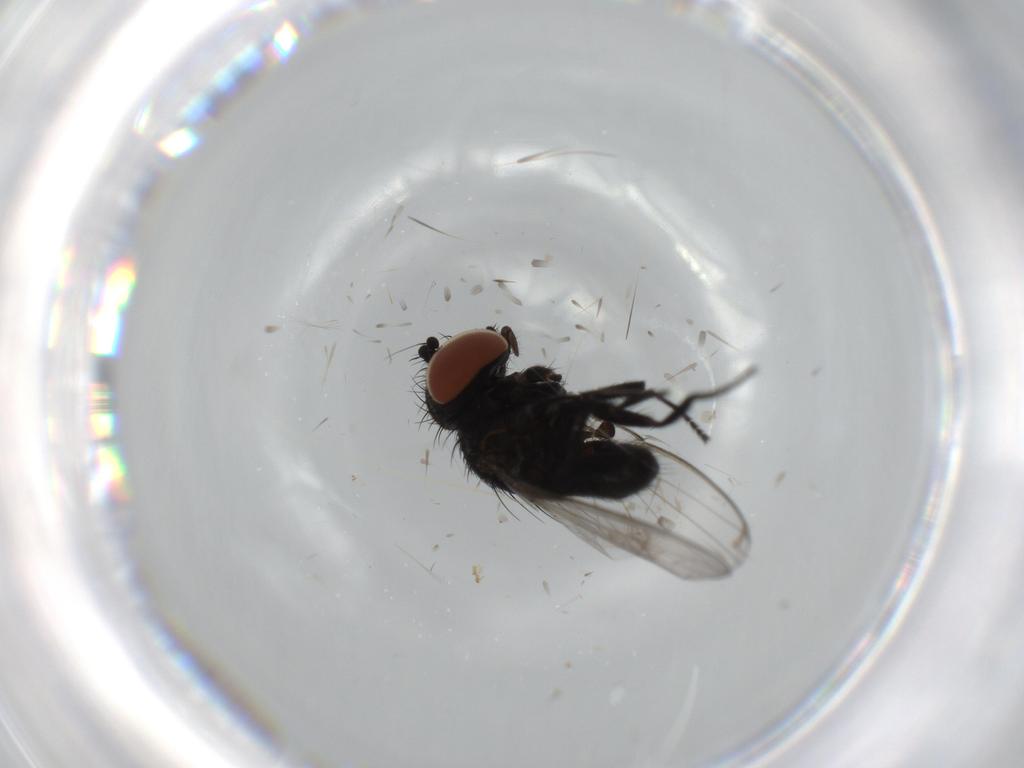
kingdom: Animalia
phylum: Arthropoda
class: Insecta
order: Diptera
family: Milichiidae
